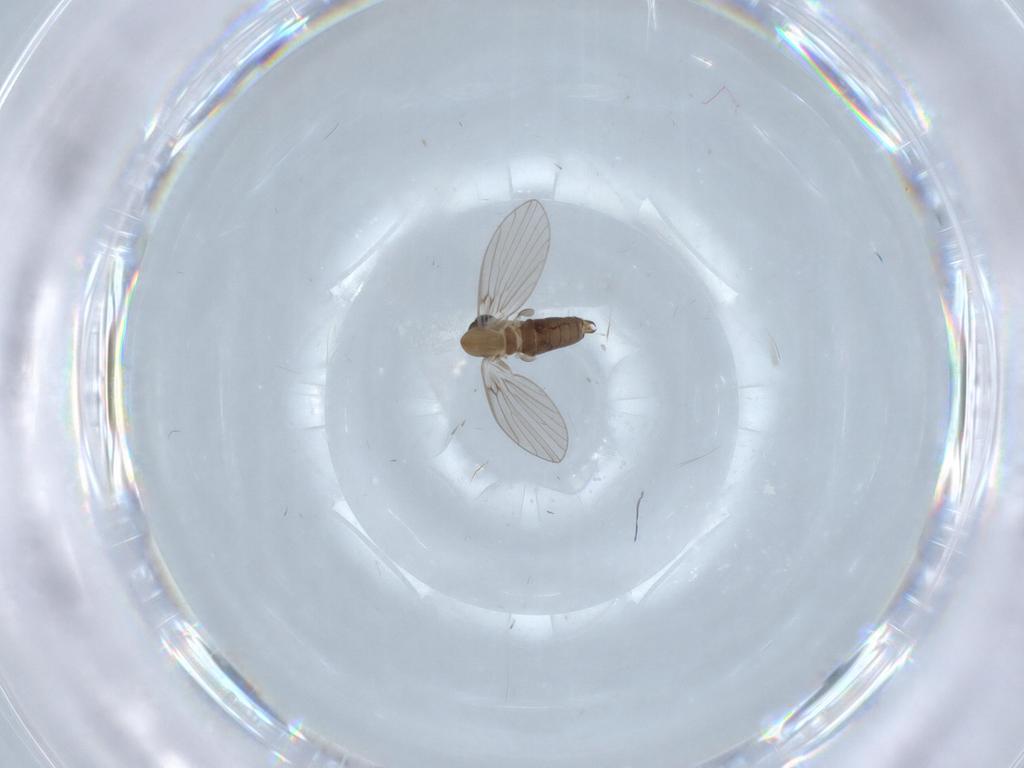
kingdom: Animalia
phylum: Arthropoda
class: Insecta
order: Diptera
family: Psychodidae
